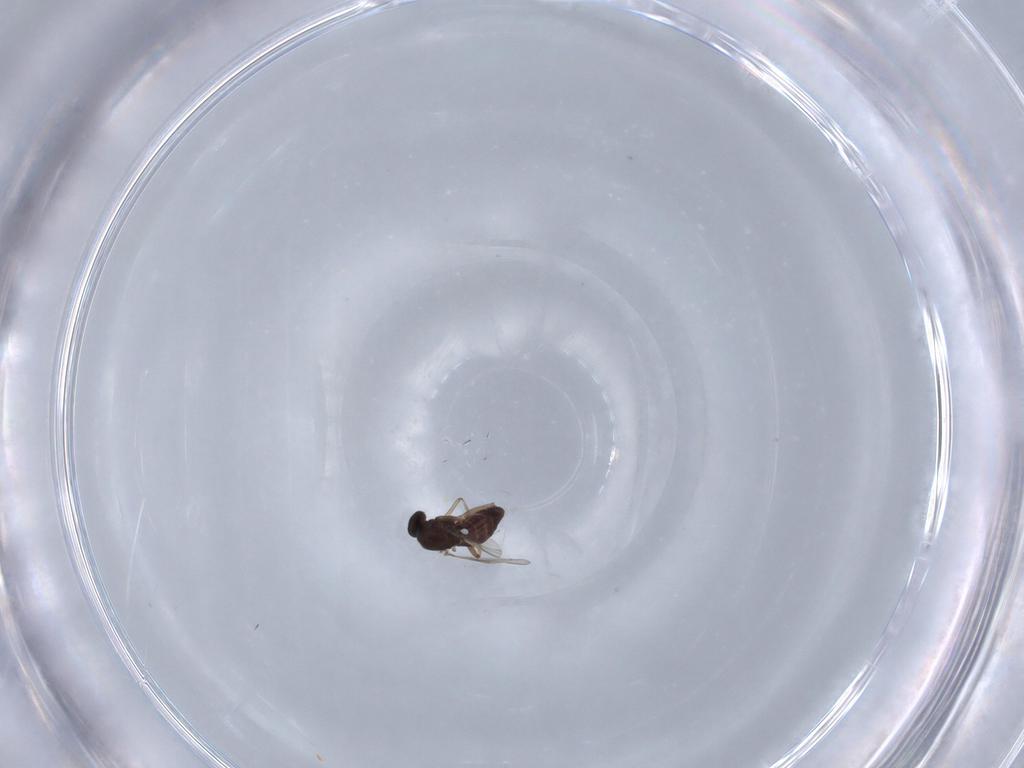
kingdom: Animalia
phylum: Arthropoda
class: Insecta
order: Diptera
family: Ceratopogonidae
